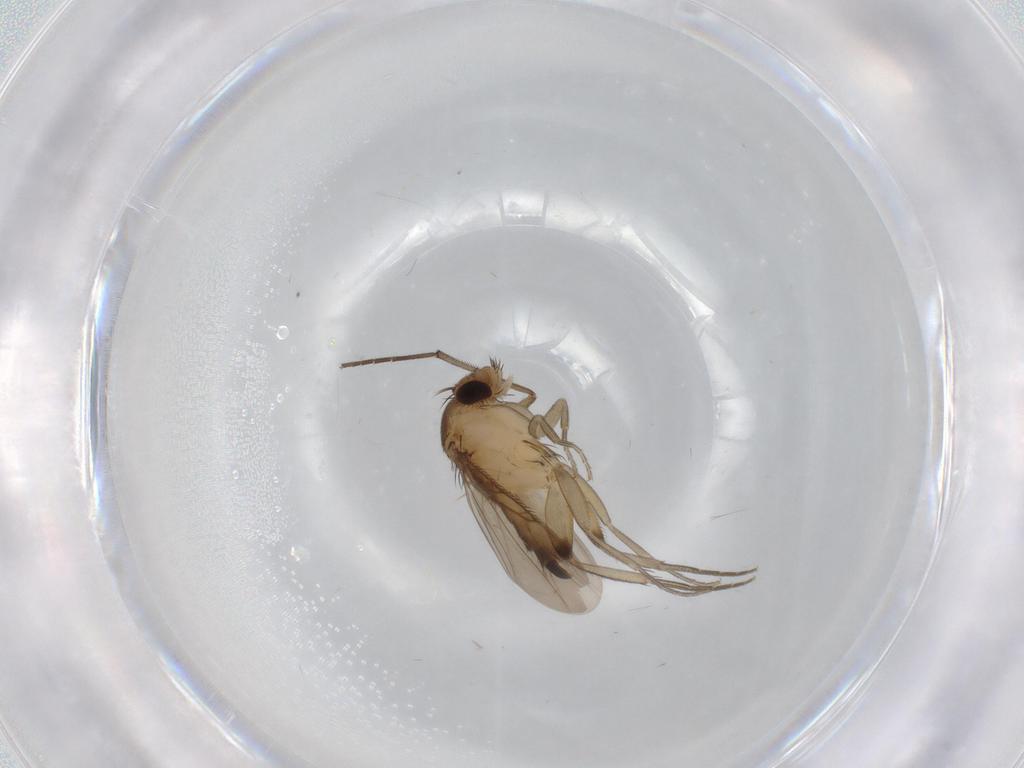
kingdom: Animalia
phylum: Arthropoda
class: Insecta
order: Diptera
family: Phoridae
